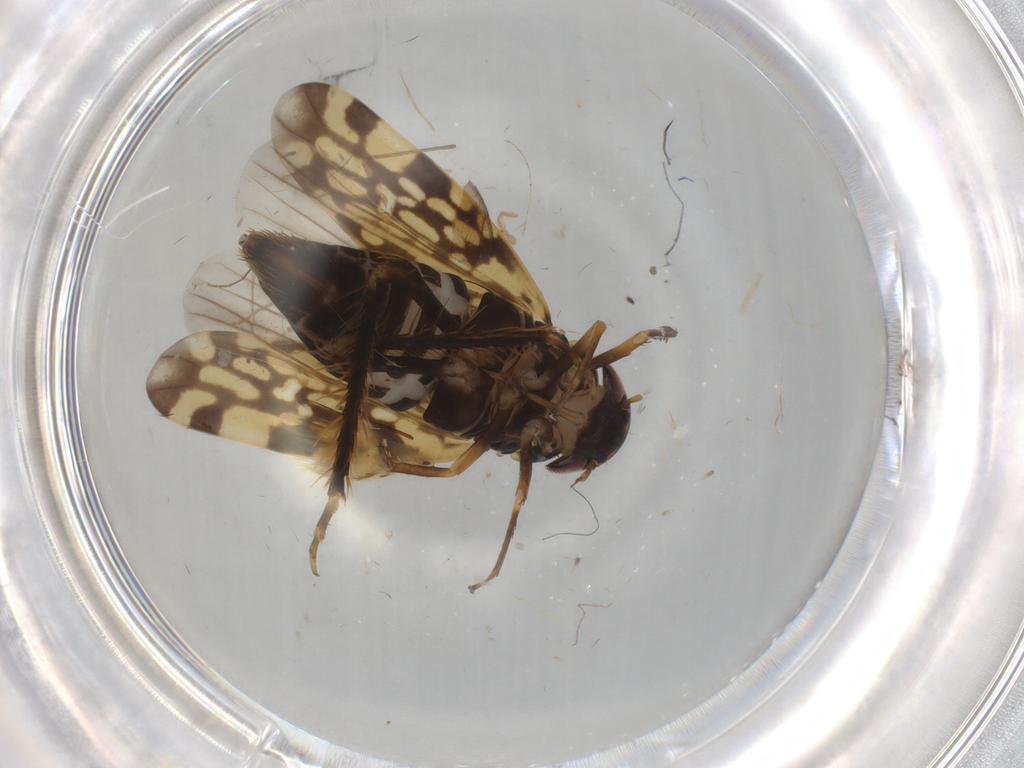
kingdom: Animalia
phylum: Arthropoda
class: Insecta
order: Hemiptera
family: Cicadellidae
